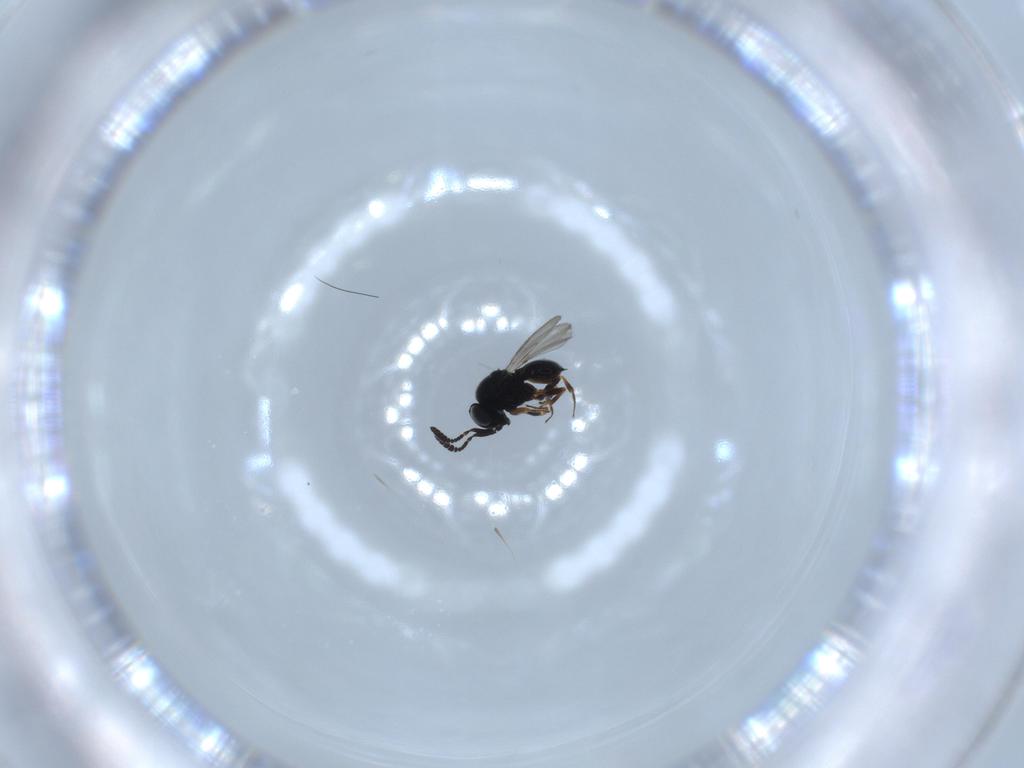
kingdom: Animalia
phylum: Arthropoda
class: Insecta
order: Hymenoptera
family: Scelionidae
